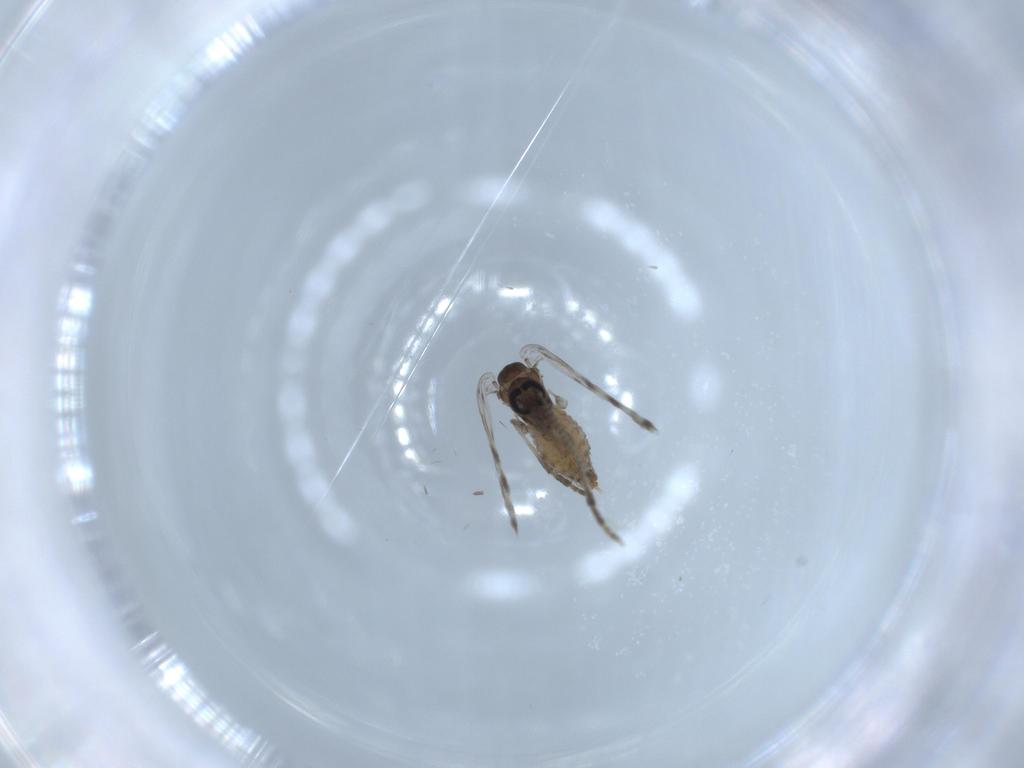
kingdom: Animalia
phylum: Arthropoda
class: Insecta
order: Diptera
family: Psychodidae
